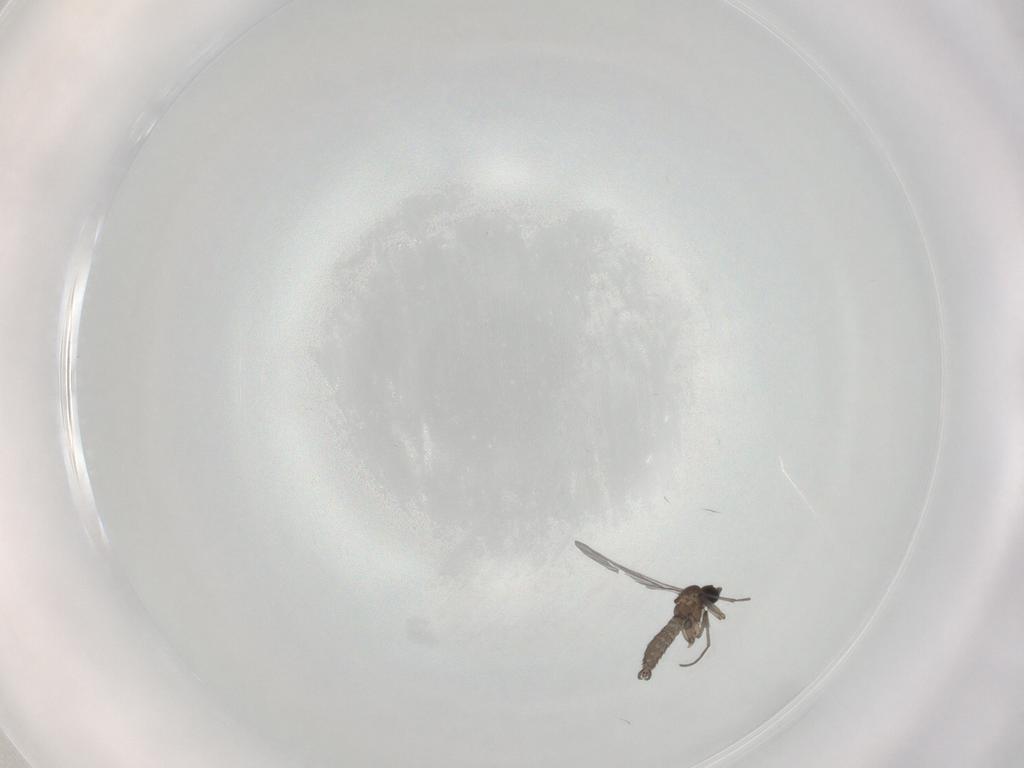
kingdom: Animalia
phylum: Arthropoda
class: Insecta
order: Diptera
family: Sciaridae
